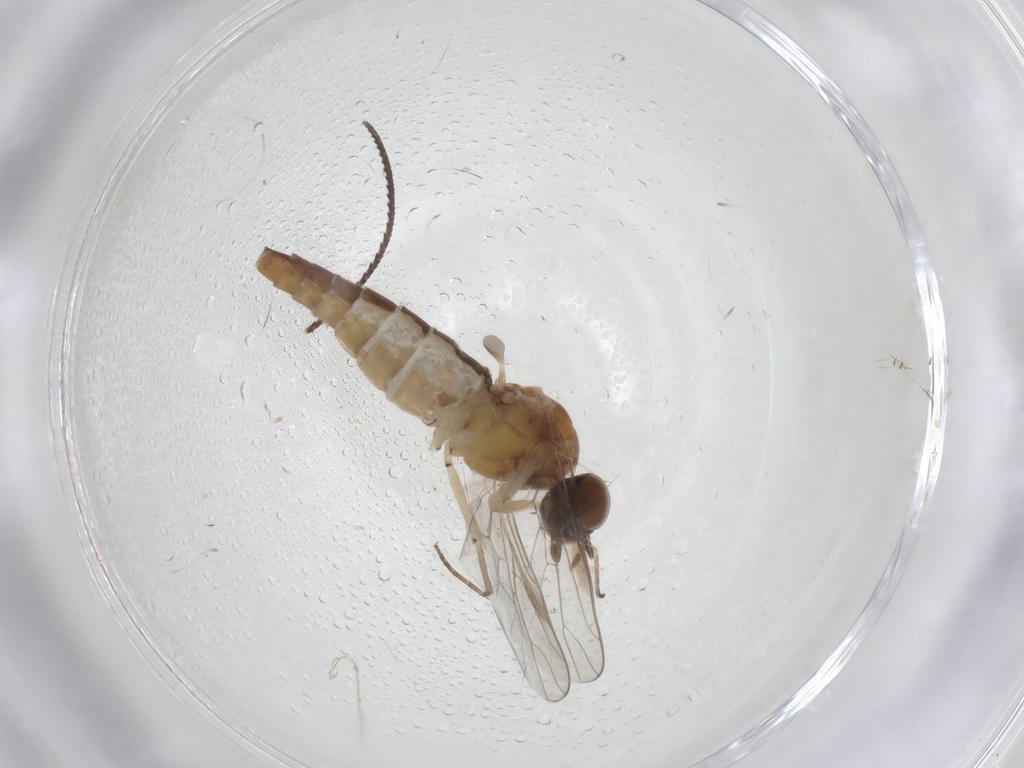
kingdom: Animalia
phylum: Arthropoda
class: Insecta
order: Diptera
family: Scenopinidae
